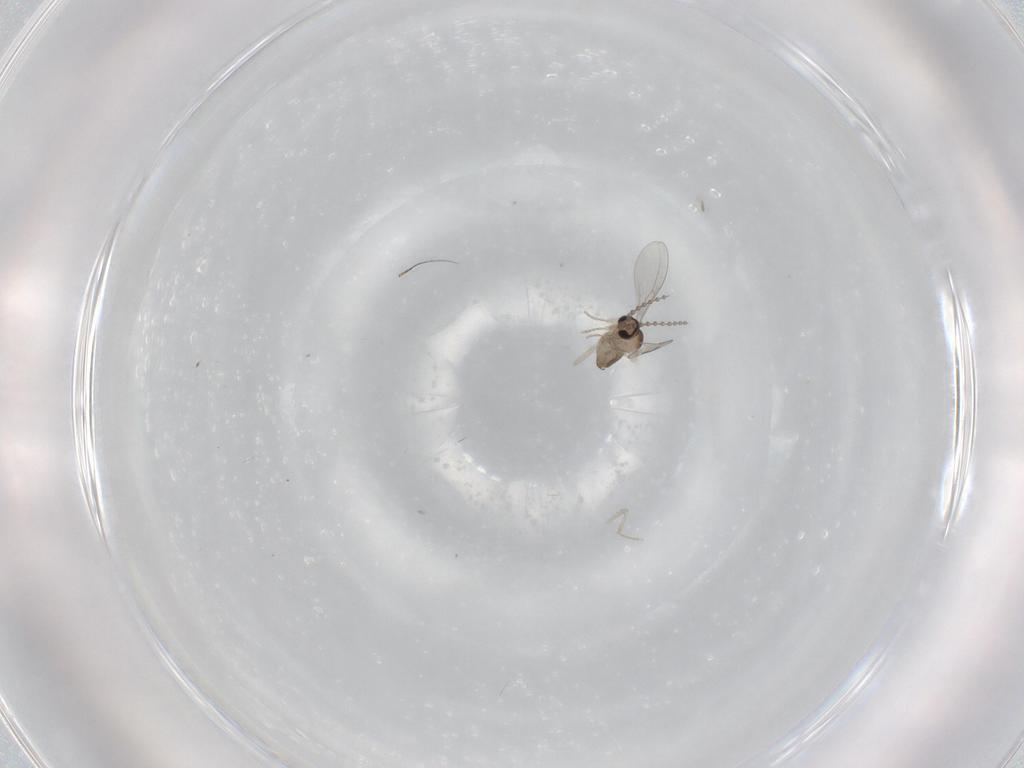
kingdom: Animalia
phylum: Arthropoda
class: Insecta
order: Diptera
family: Cecidomyiidae
